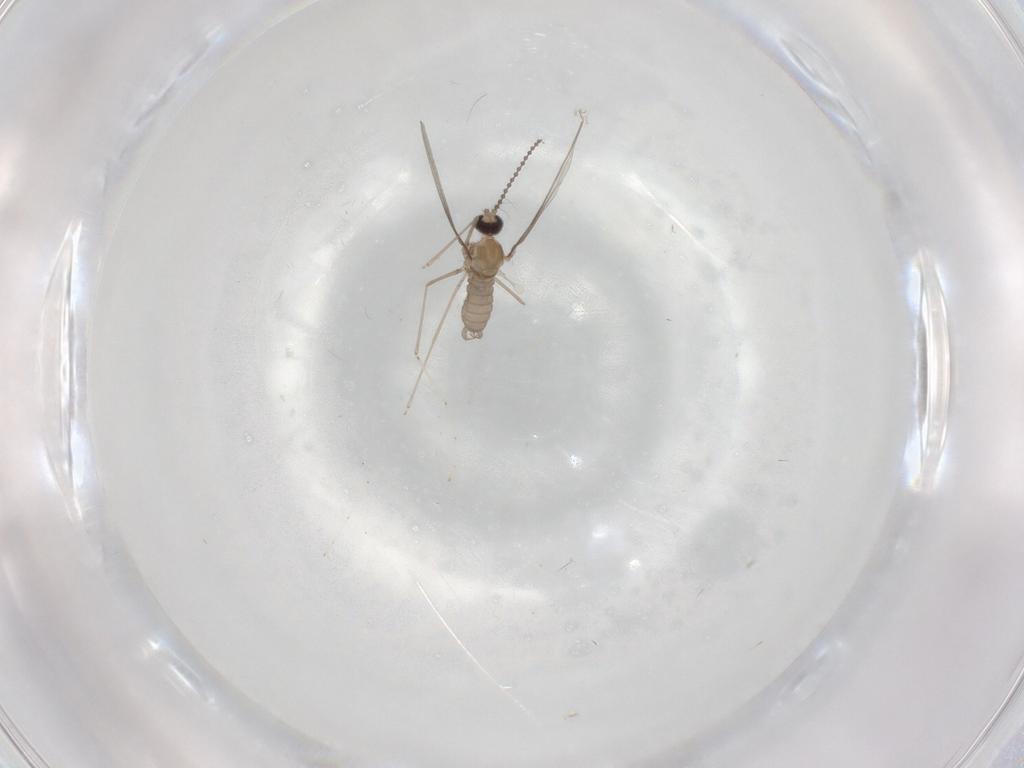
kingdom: Animalia
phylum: Arthropoda
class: Insecta
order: Diptera
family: Cecidomyiidae
